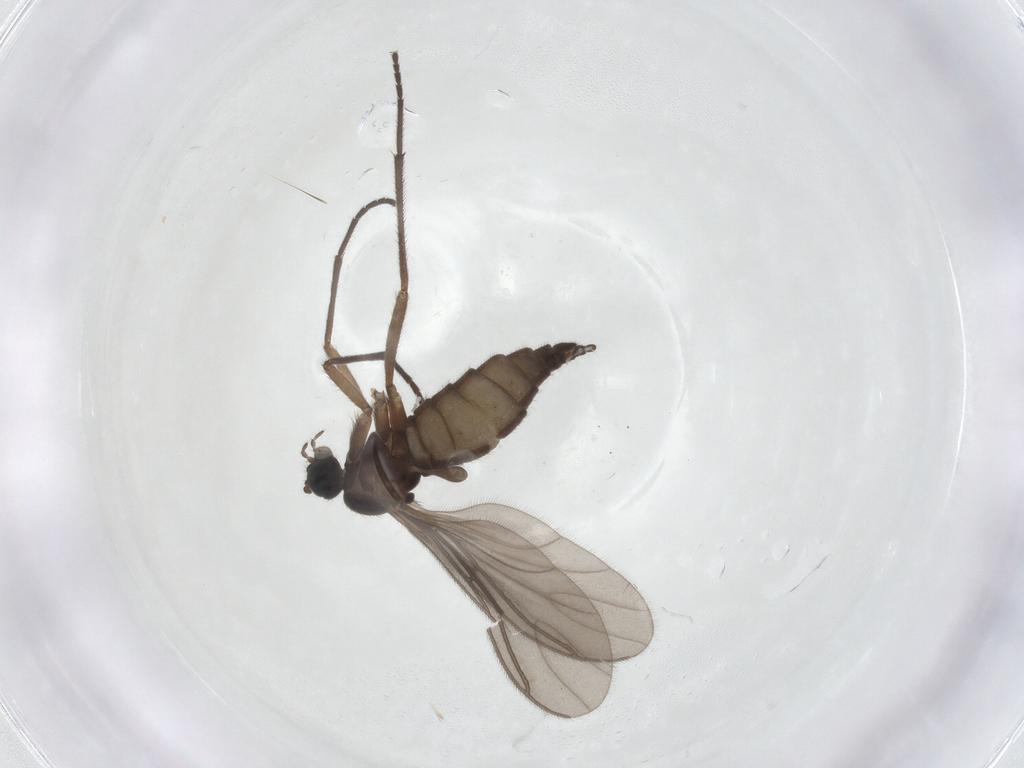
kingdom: Animalia
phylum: Arthropoda
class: Insecta
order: Diptera
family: Sciaridae
